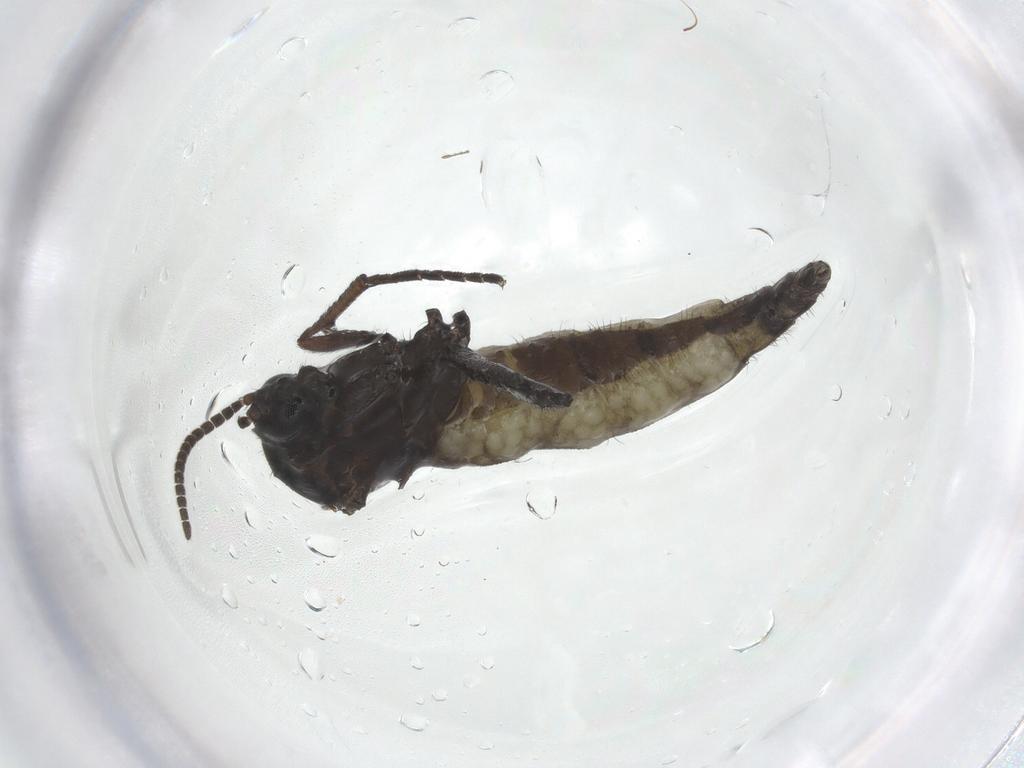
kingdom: Animalia
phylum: Arthropoda
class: Insecta
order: Diptera
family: Sciaridae
